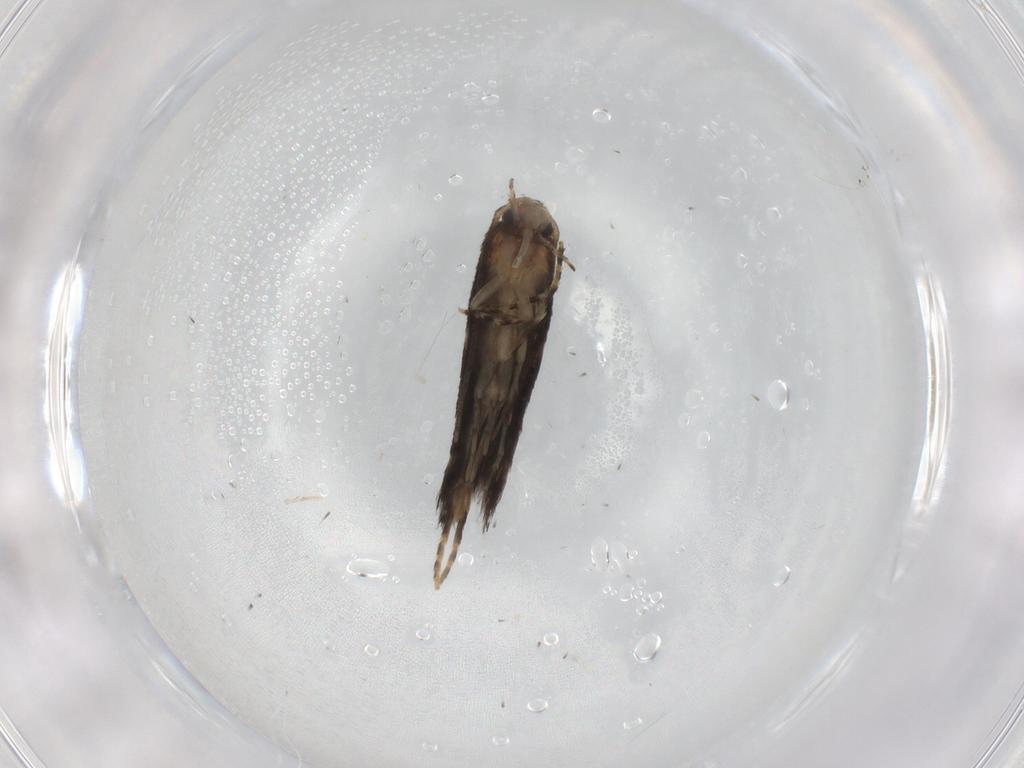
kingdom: Animalia
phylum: Arthropoda
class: Insecta
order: Lepidoptera
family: Elachistidae
